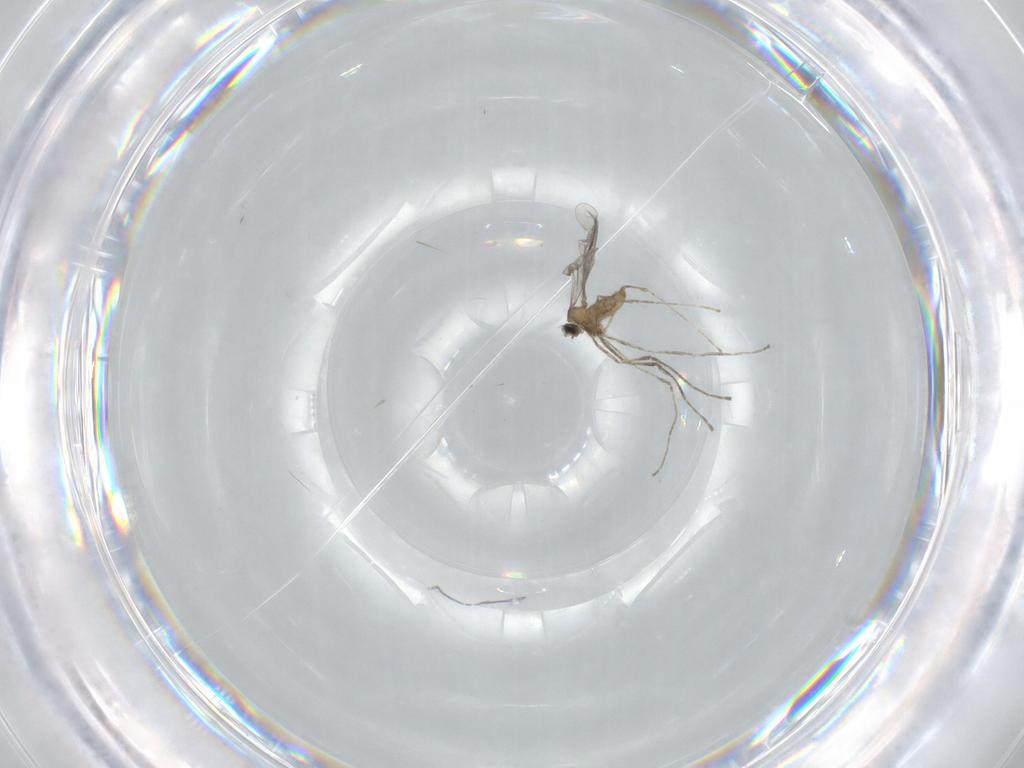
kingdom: Animalia
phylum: Arthropoda
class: Insecta
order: Diptera
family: Cecidomyiidae
